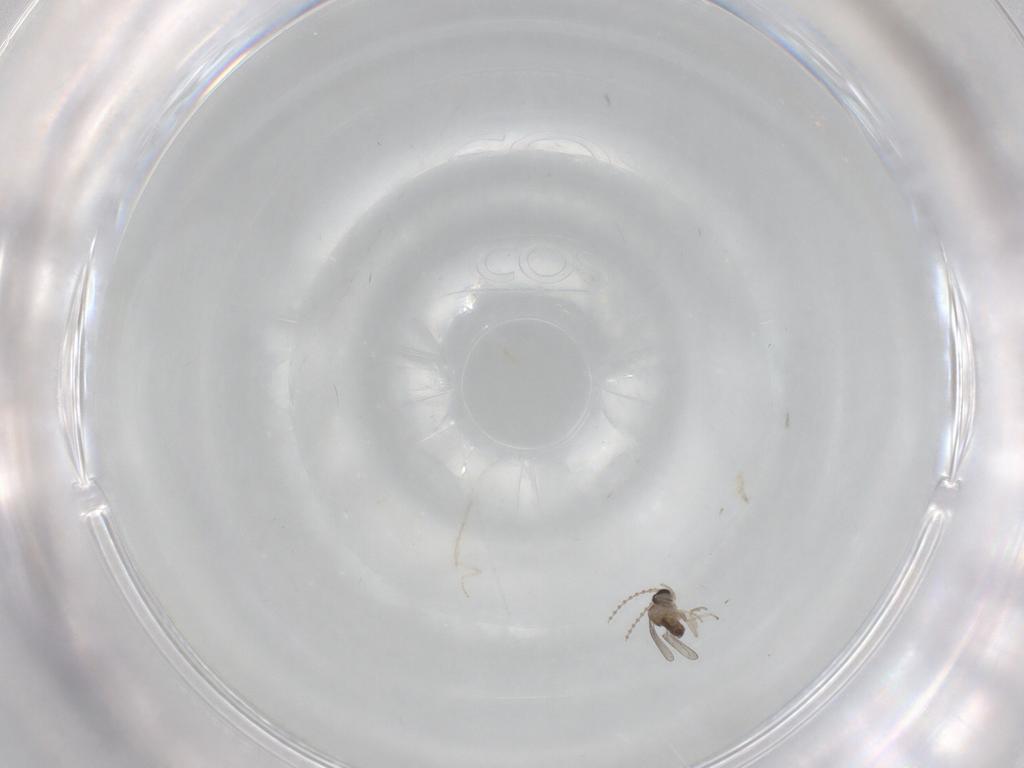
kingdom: Animalia
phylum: Arthropoda
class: Insecta
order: Diptera
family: Cecidomyiidae
